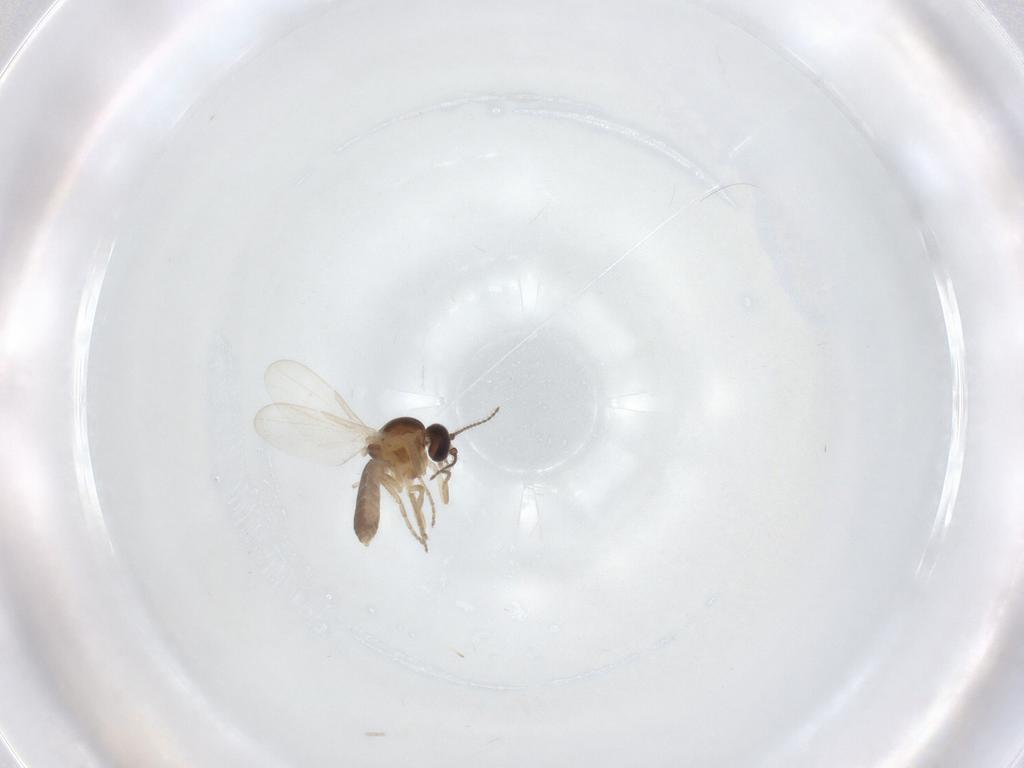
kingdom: Animalia
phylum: Arthropoda
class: Insecta
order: Diptera
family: Ceratopogonidae
